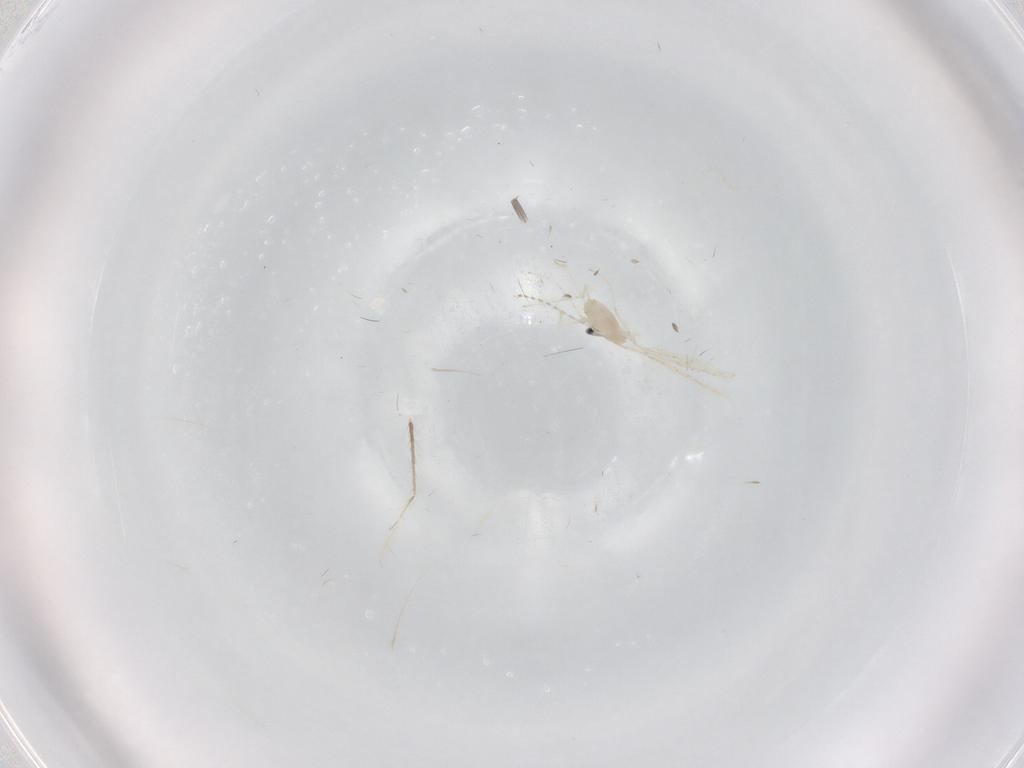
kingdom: Animalia
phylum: Arthropoda
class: Insecta
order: Diptera
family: Cecidomyiidae
